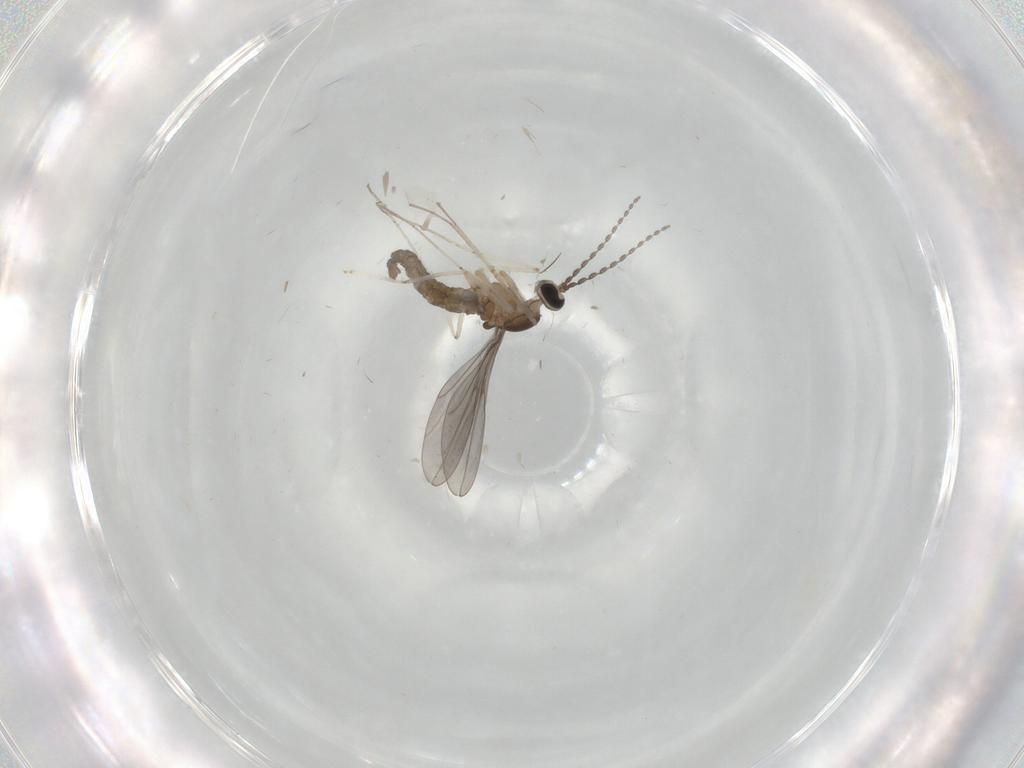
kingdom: Animalia
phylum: Arthropoda
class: Insecta
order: Diptera
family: Cecidomyiidae
